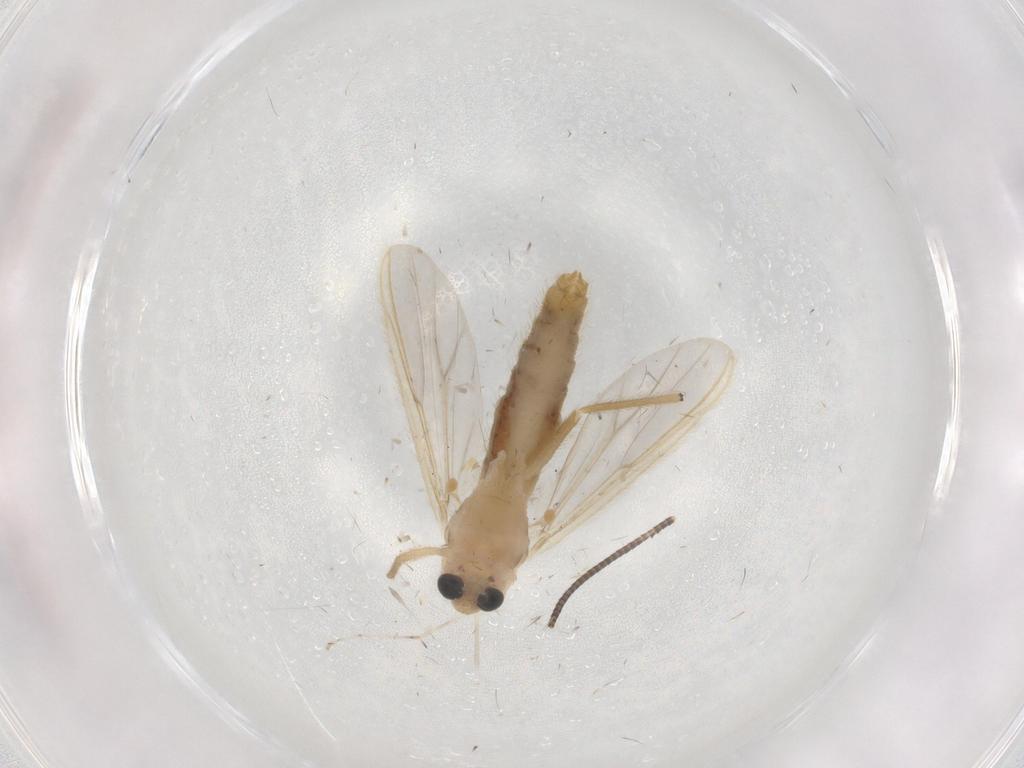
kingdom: Animalia
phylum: Arthropoda
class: Insecta
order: Diptera
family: Chironomidae
